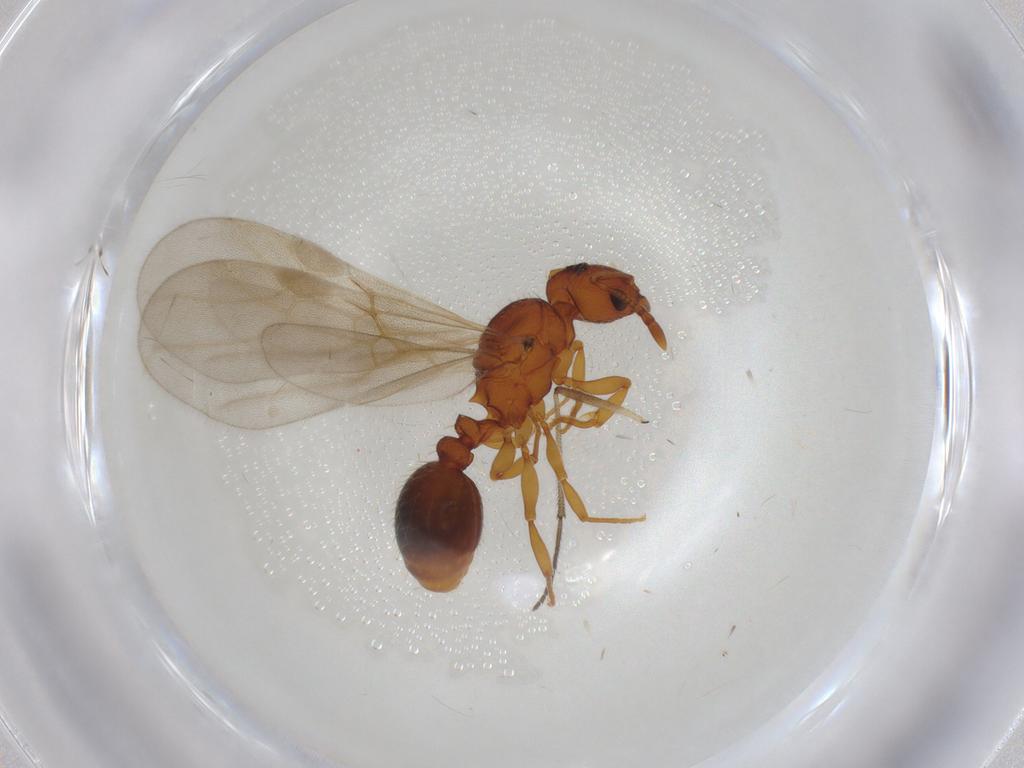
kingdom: Animalia
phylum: Arthropoda
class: Insecta
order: Hymenoptera
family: Formicidae
